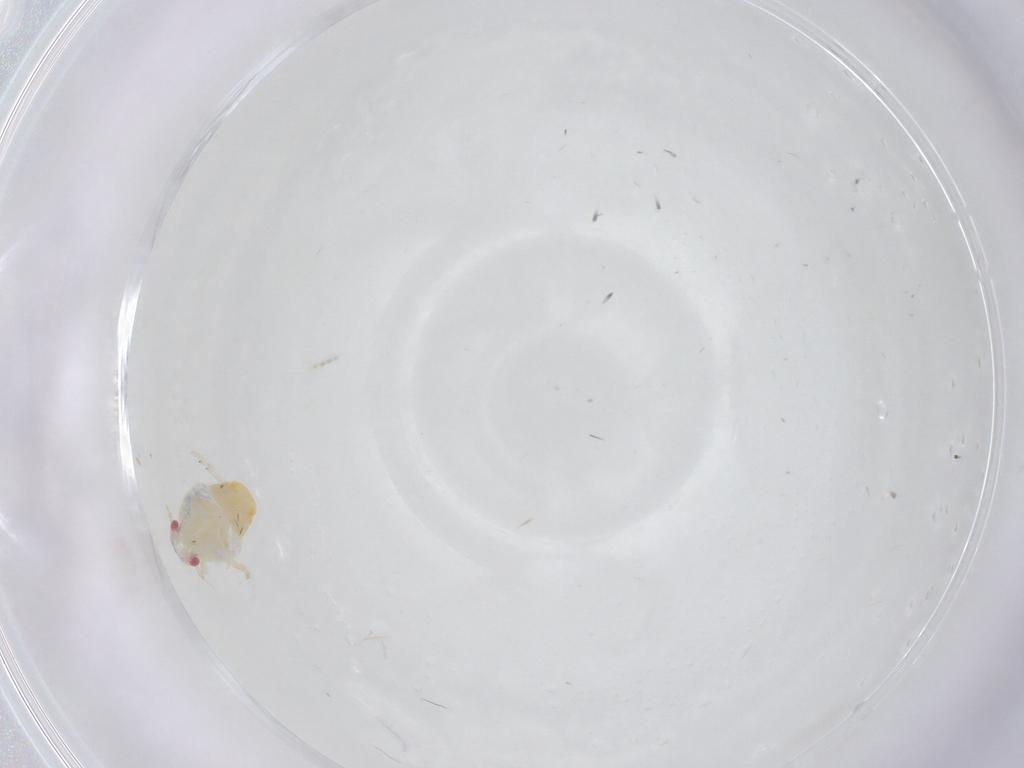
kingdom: Animalia
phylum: Arthropoda
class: Insecta
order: Hemiptera
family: Fulgoroidea_incertae_sedis
